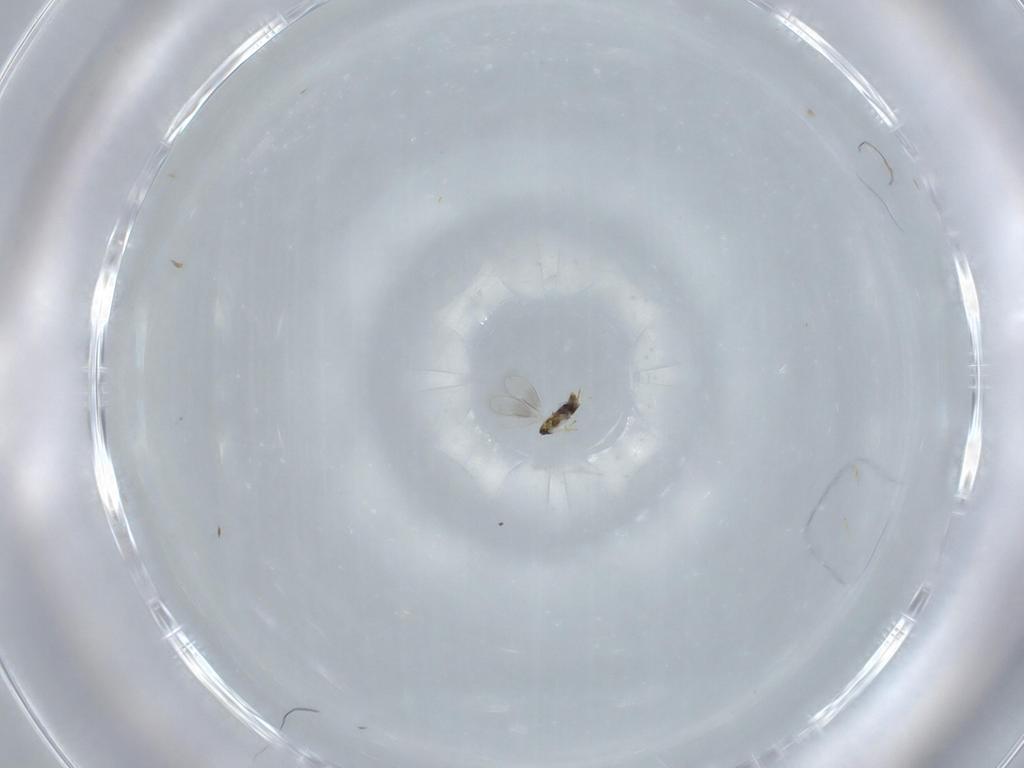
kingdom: Animalia
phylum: Arthropoda
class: Insecta
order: Hymenoptera
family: Aphelinidae
